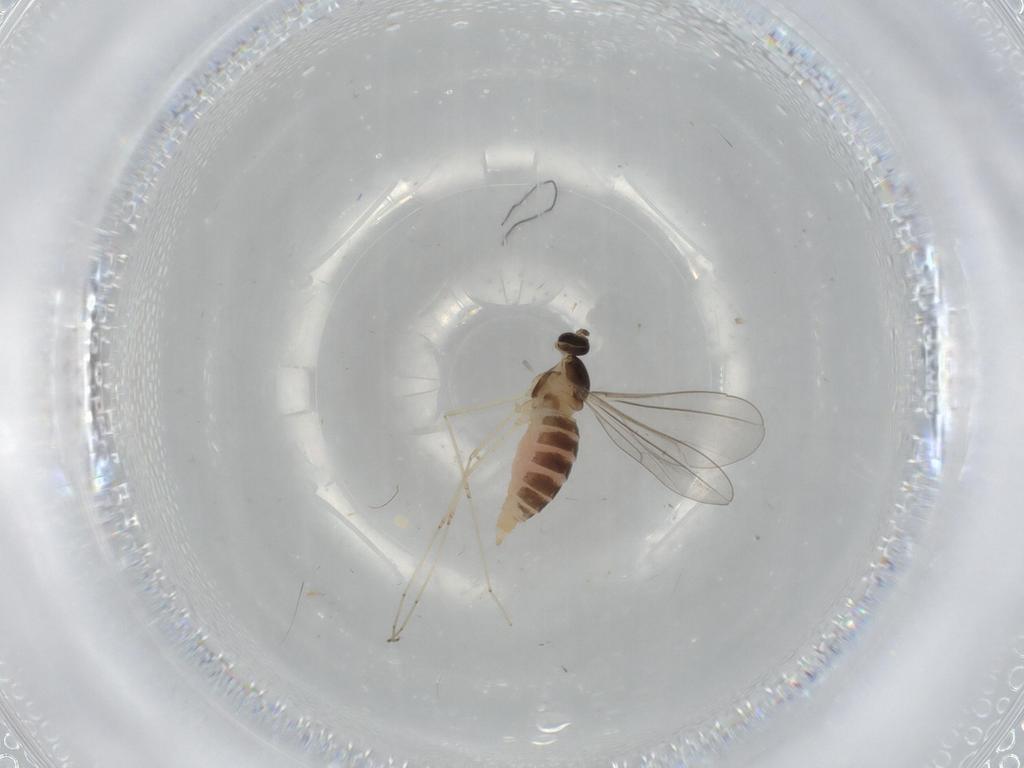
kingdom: Animalia
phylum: Arthropoda
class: Insecta
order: Diptera
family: Cecidomyiidae
